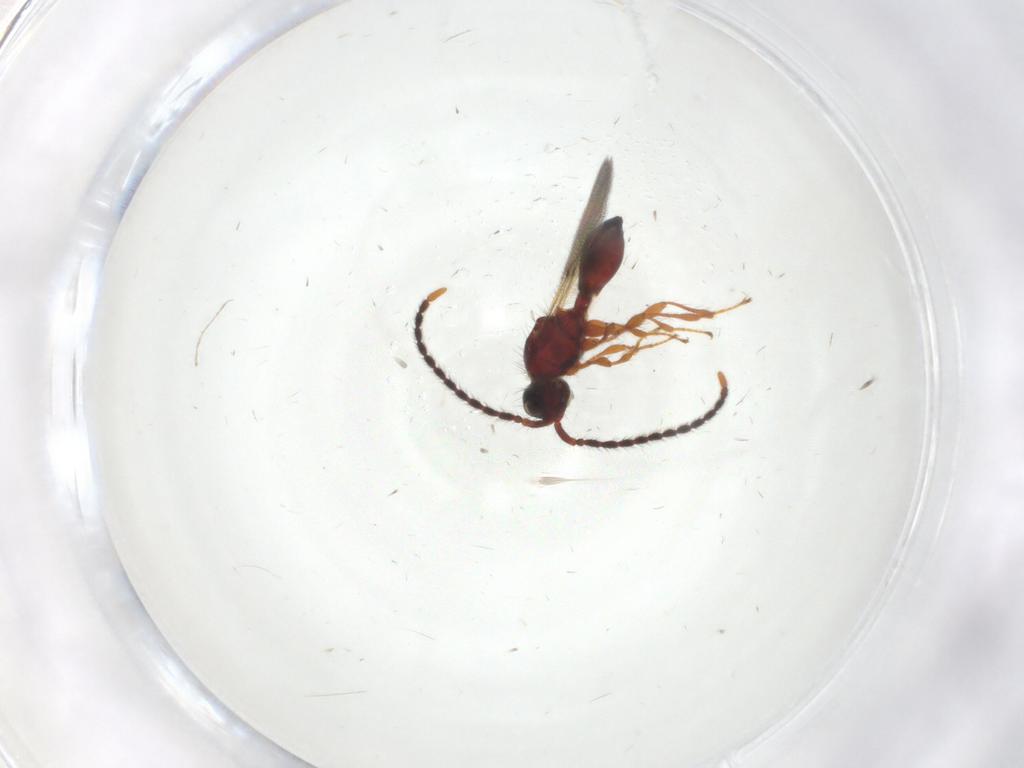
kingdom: Animalia
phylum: Arthropoda
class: Insecta
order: Hymenoptera
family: Diapriidae
